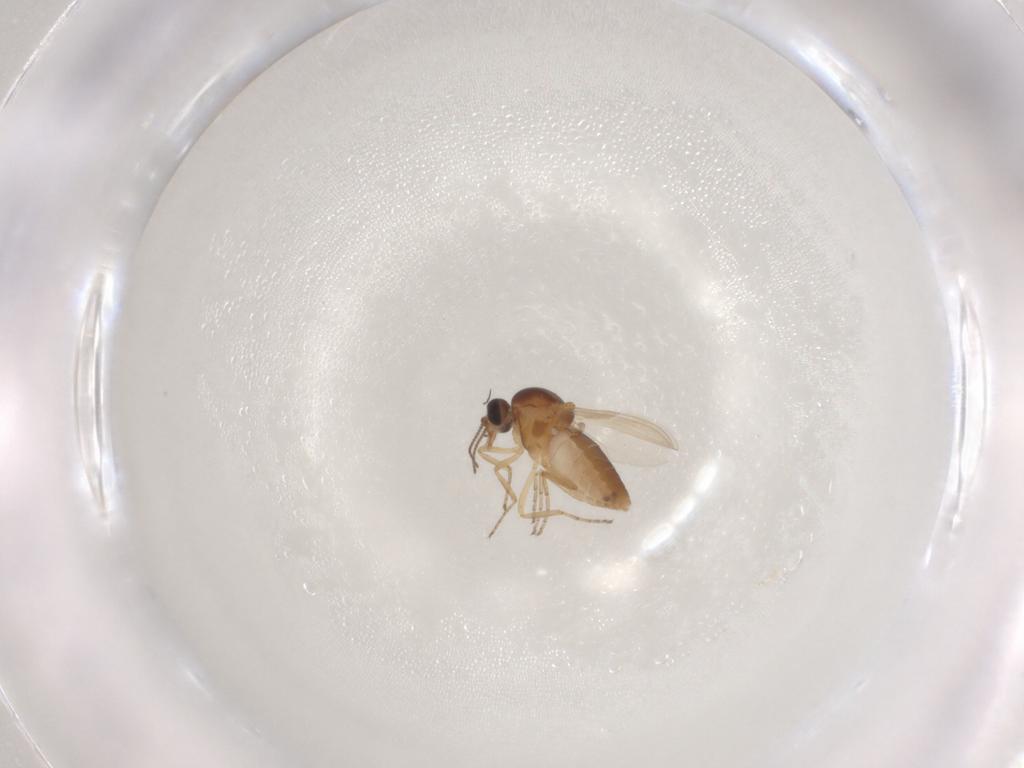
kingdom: Animalia
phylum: Arthropoda
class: Insecta
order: Diptera
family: Ceratopogonidae
